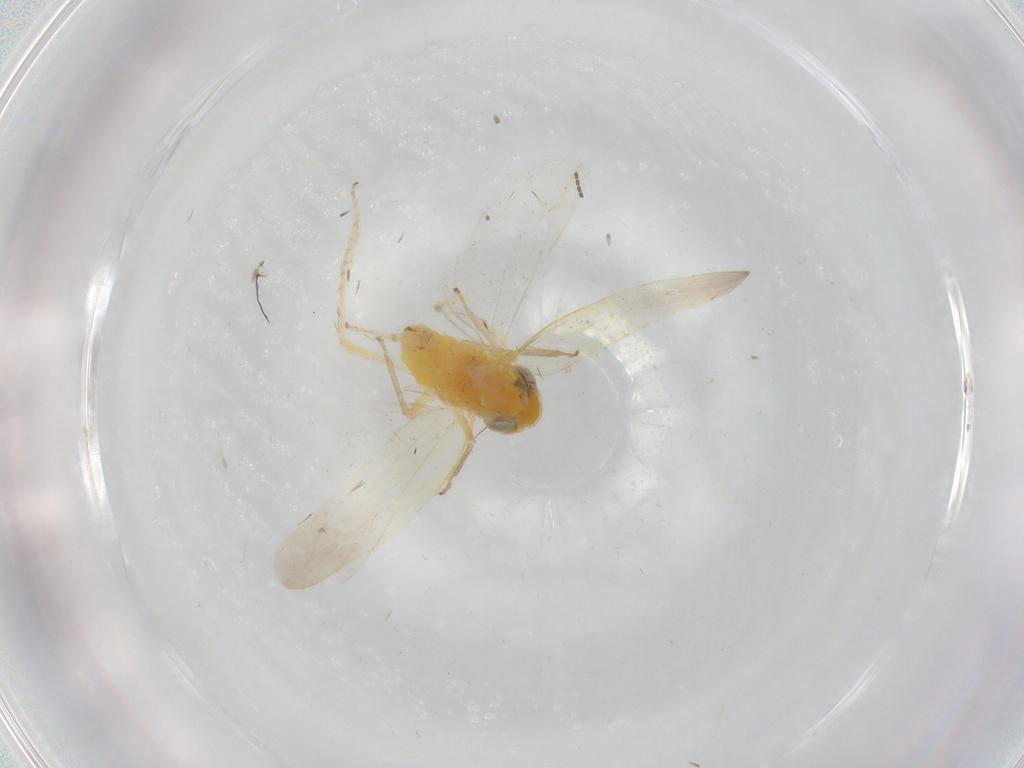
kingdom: Animalia
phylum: Arthropoda
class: Insecta
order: Hemiptera
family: Cicadellidae
